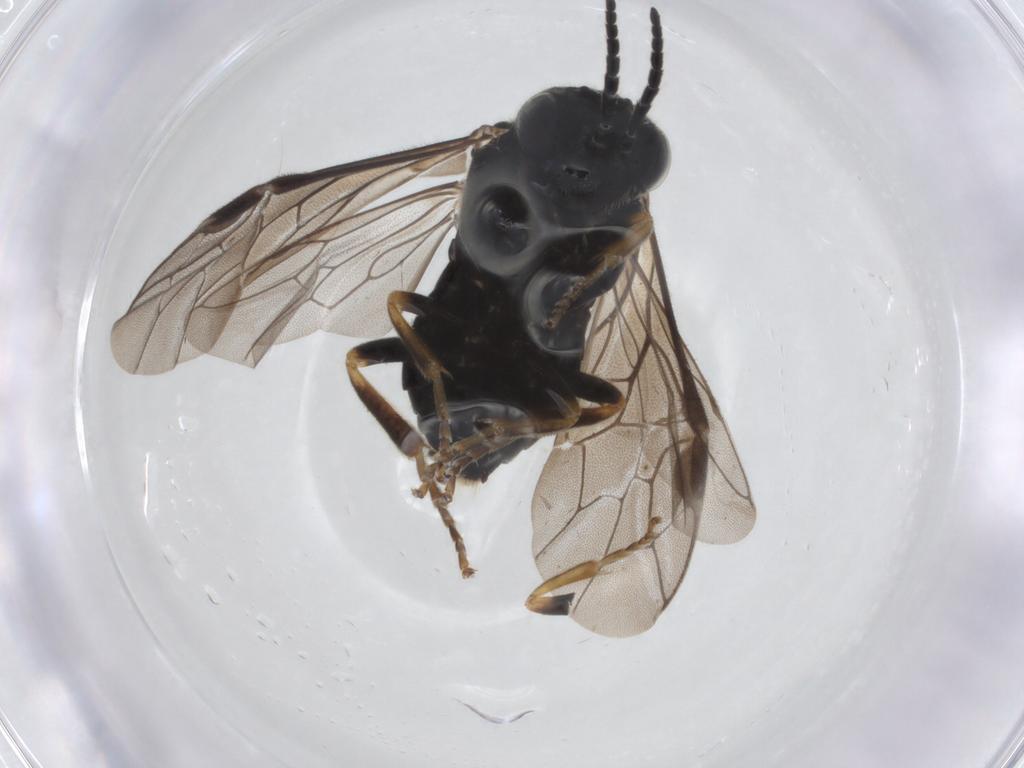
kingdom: Animalia
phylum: Arthropoda
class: Insecta
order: Hymenoptera
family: Tenthredinidae
